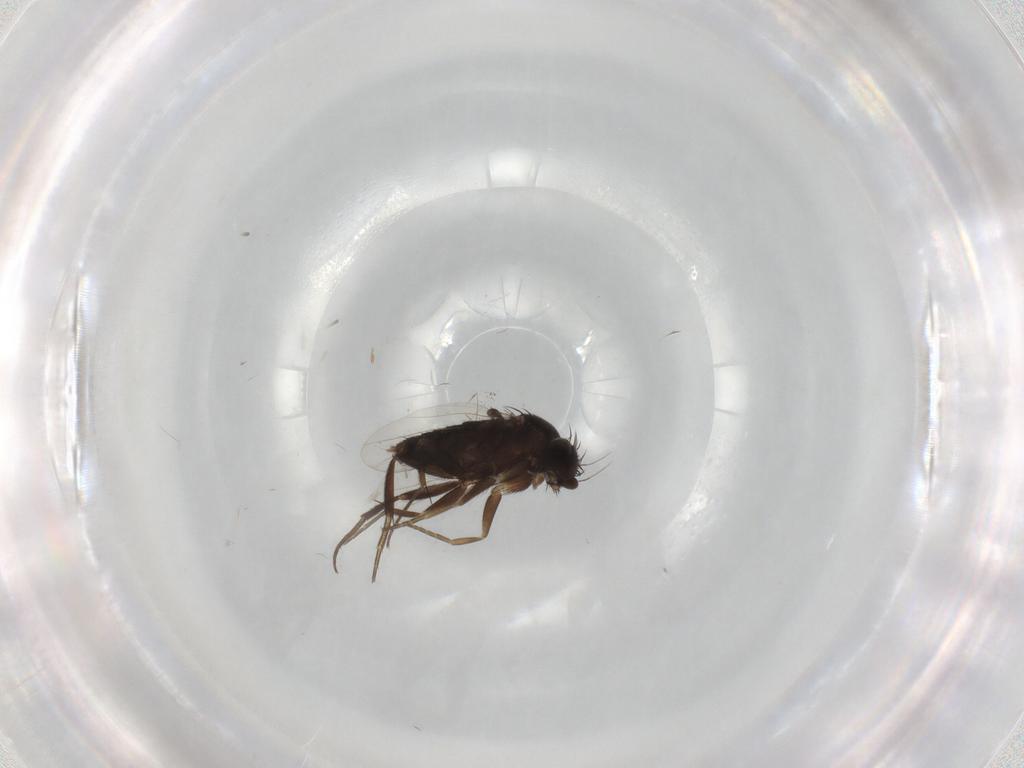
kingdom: Animalia
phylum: Arthropoda
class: Insecta
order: Diptera
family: Phoridae
